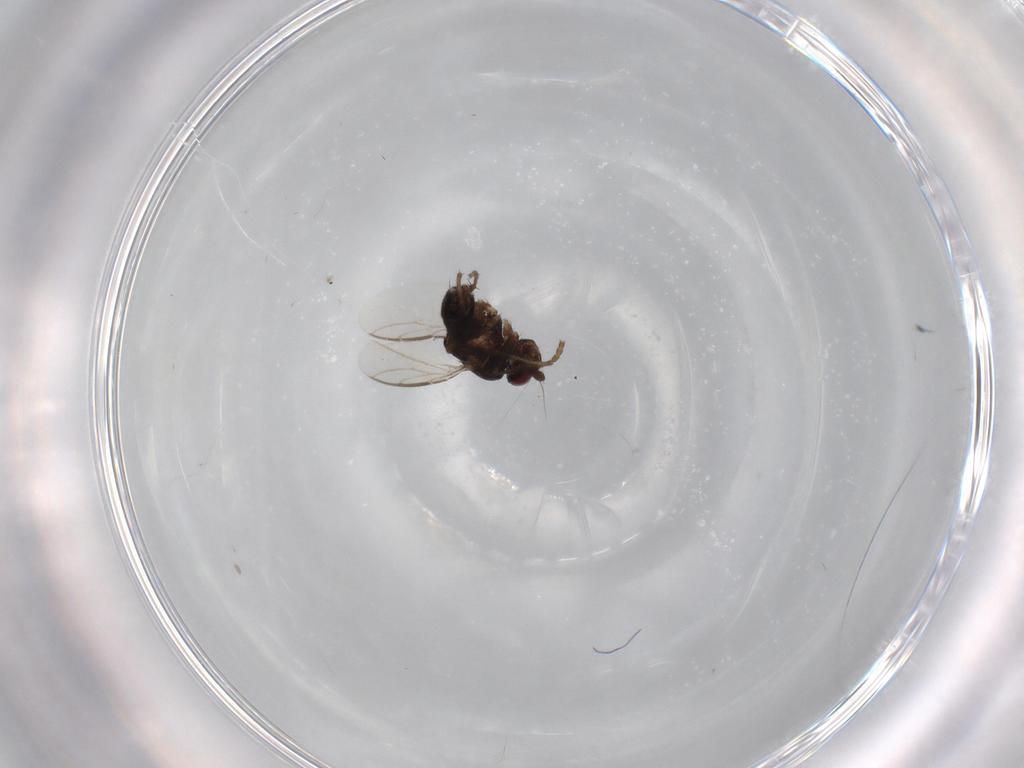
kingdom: Animalia
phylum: Arthropoda
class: Insecta
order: Diptera
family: Sphaeroceridae
